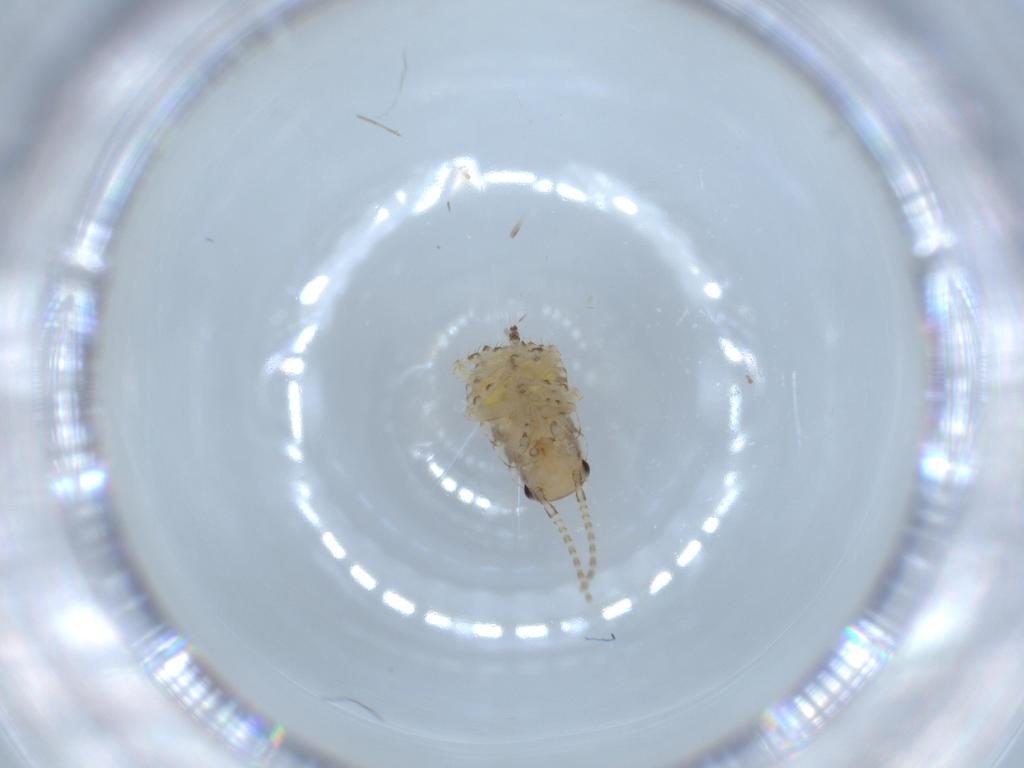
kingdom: Animalia
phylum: Arthropoda
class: Insecta
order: Blattodea
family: Ectobiidae
